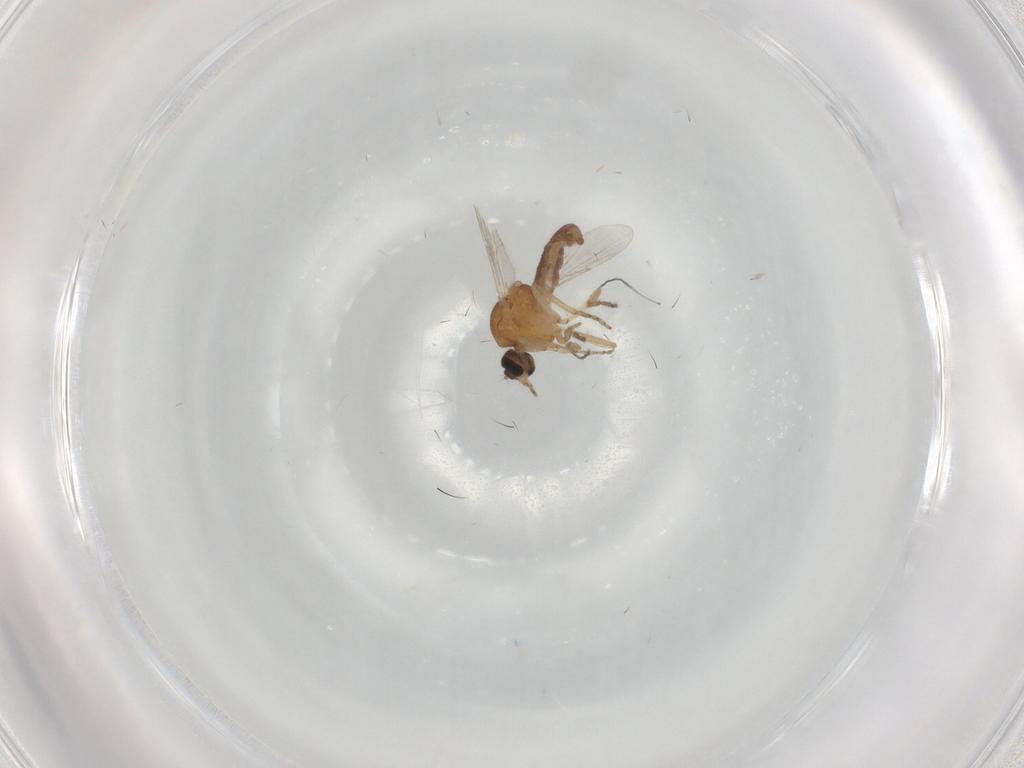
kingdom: Animalia
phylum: Arthropoda
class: Insecta
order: Diptera
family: Ceratopogonidae
